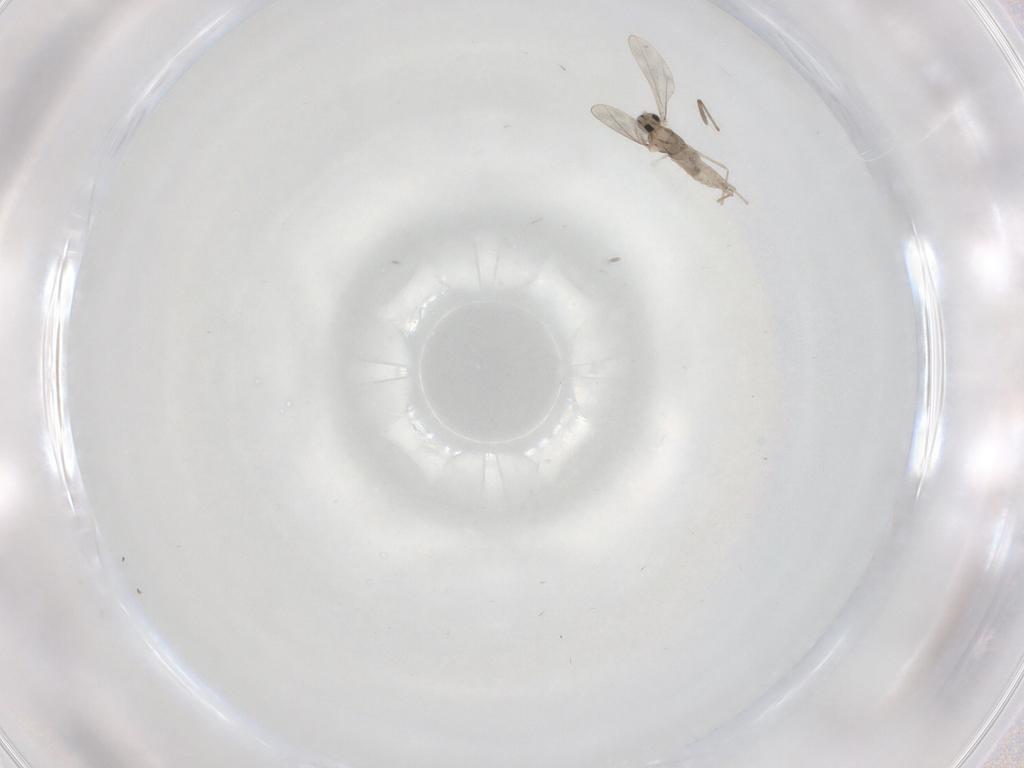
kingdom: Animalia
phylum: Arthropoda
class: Insecta
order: Diptera
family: Cecidomyiidae
